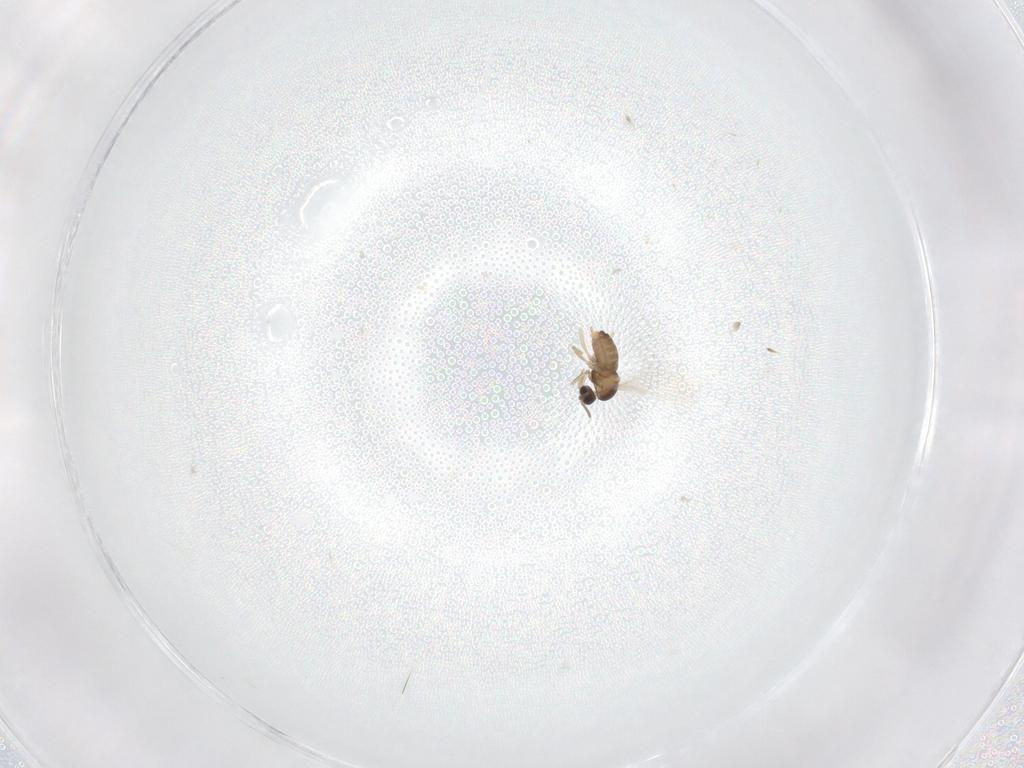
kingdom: Animalia
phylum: Arthropoda
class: Insecta
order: Diptera
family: Cecidomyiidae
